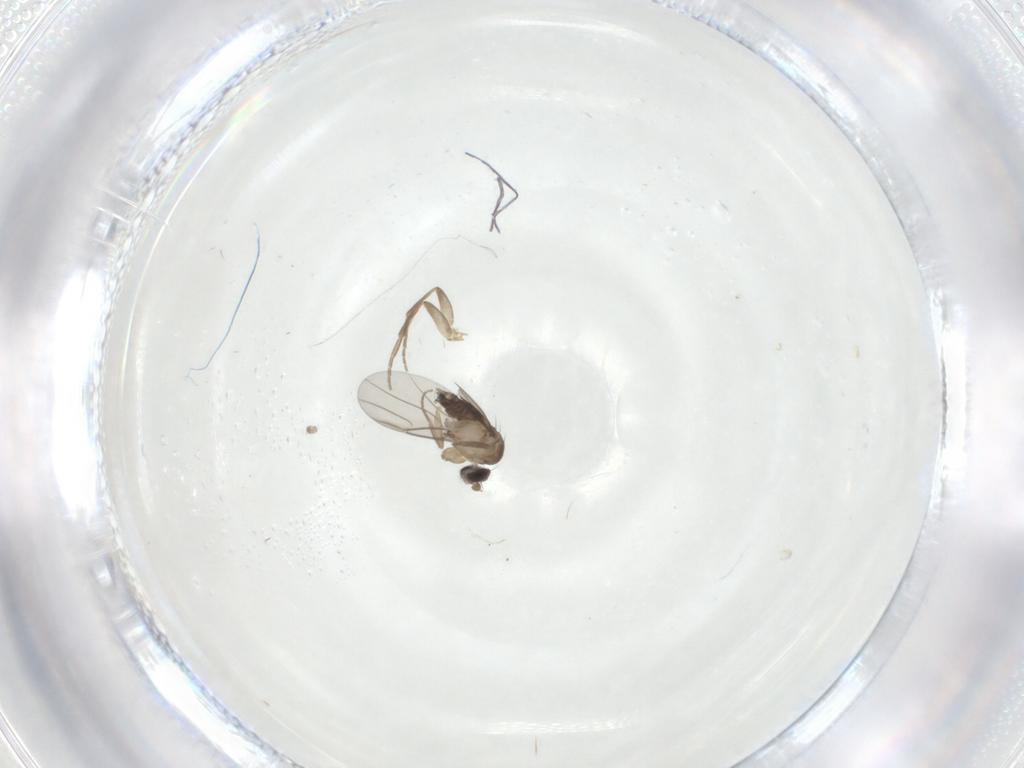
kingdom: Animalia
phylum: Arthropoda
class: Insecta
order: Diptera
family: Phoridae
